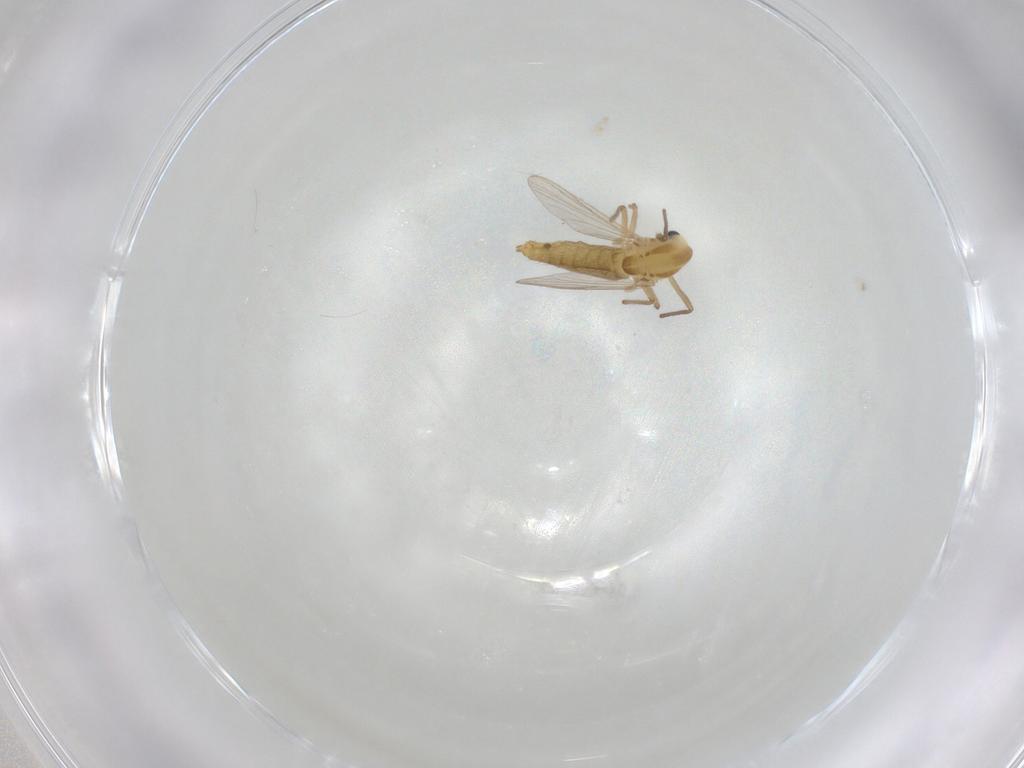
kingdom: Animalia
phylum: Arthropoda
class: Insecta
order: Diptera
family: Chironomidae
